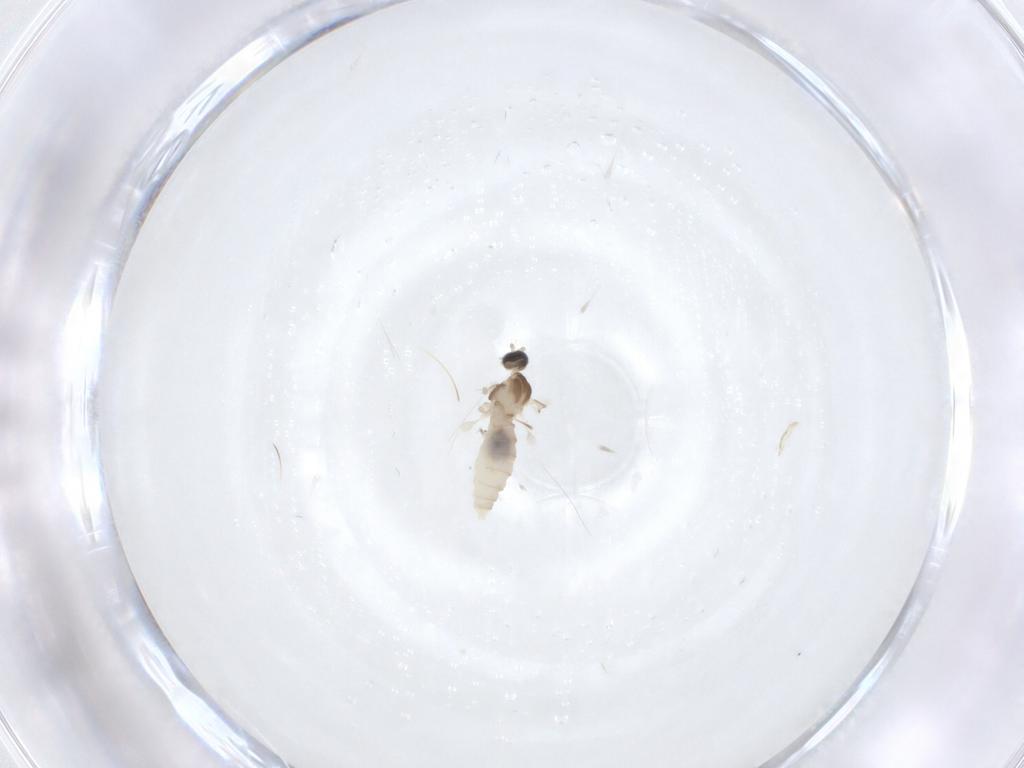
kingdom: Animalia
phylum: Arthropoda
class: Insecta
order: Diptera
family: Cecidomyiidae
